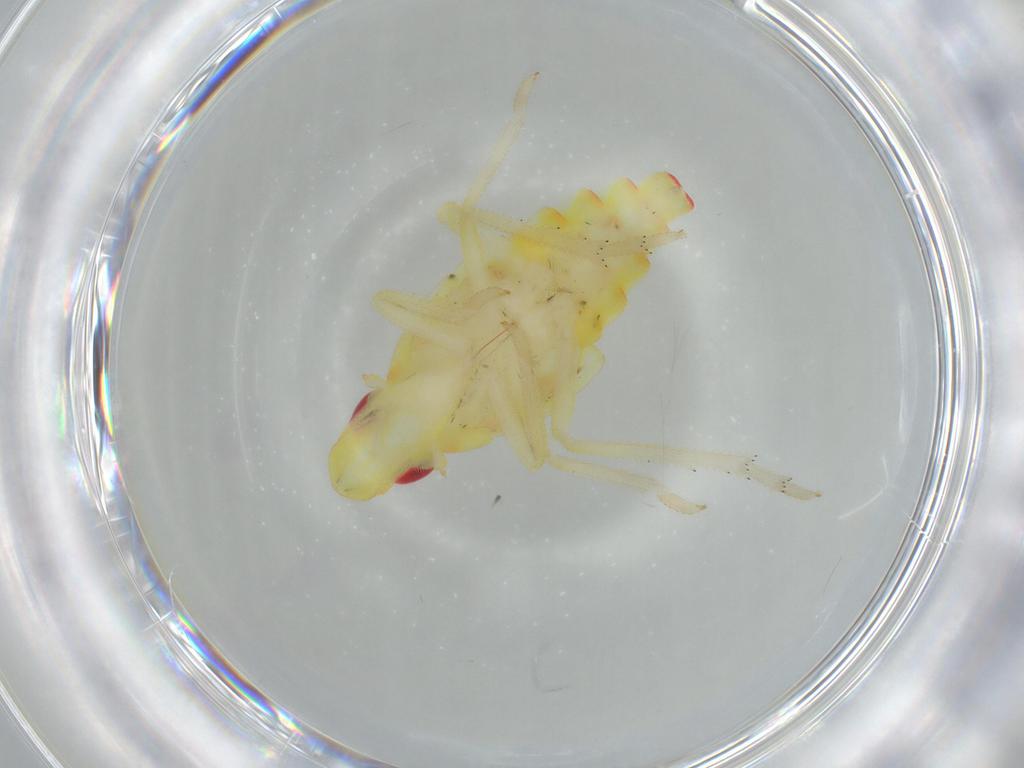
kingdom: Animalia
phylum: Arthropoda
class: Insecta
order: Hemiptera
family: Tropiduchidae
